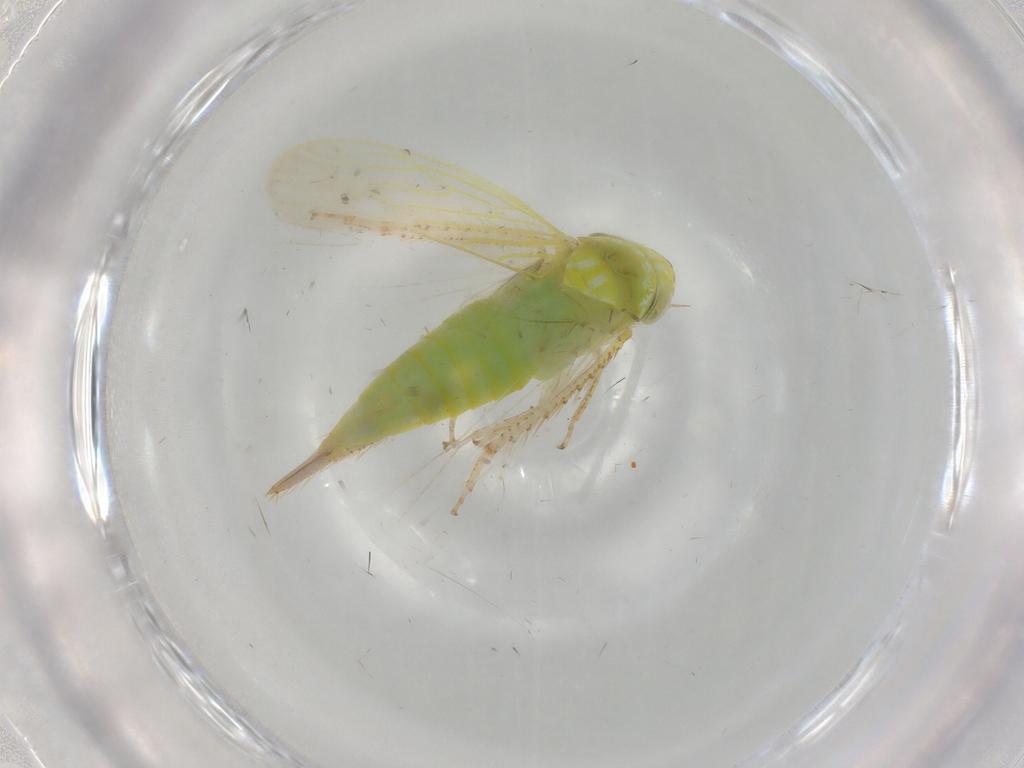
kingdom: Animalia
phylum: Arthropoda
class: Insecta
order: Hemiptera
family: Cicadellidae
